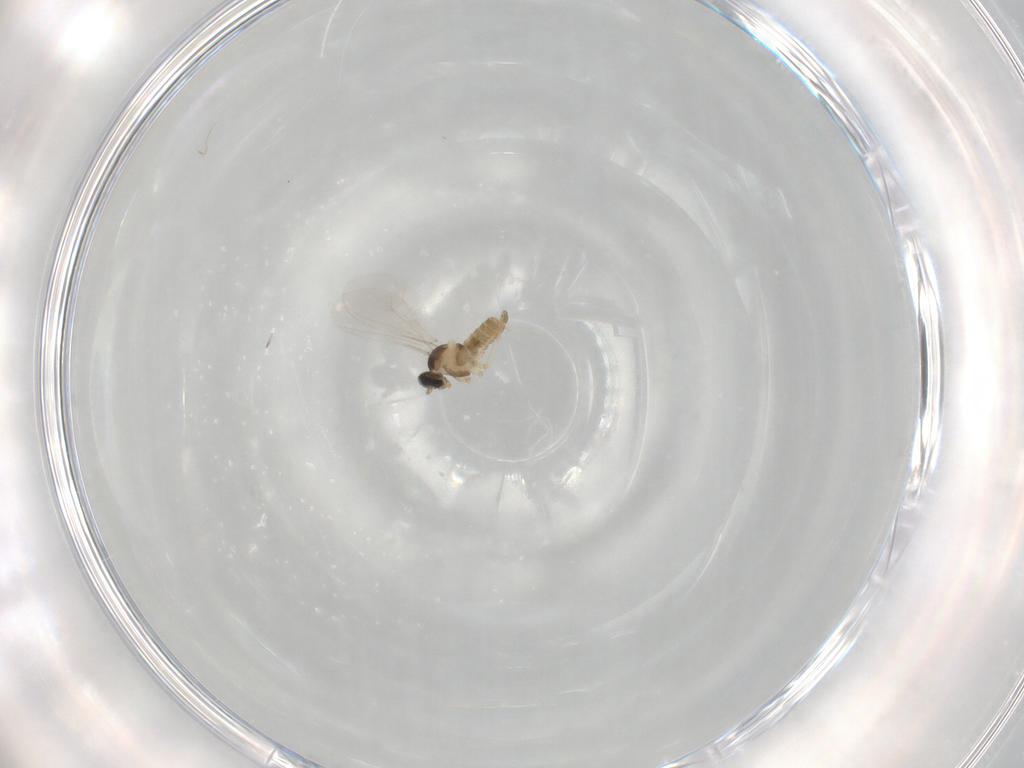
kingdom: Animalia
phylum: Arthropoda
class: Insecta
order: Diptera
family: Cecidomyiidae
